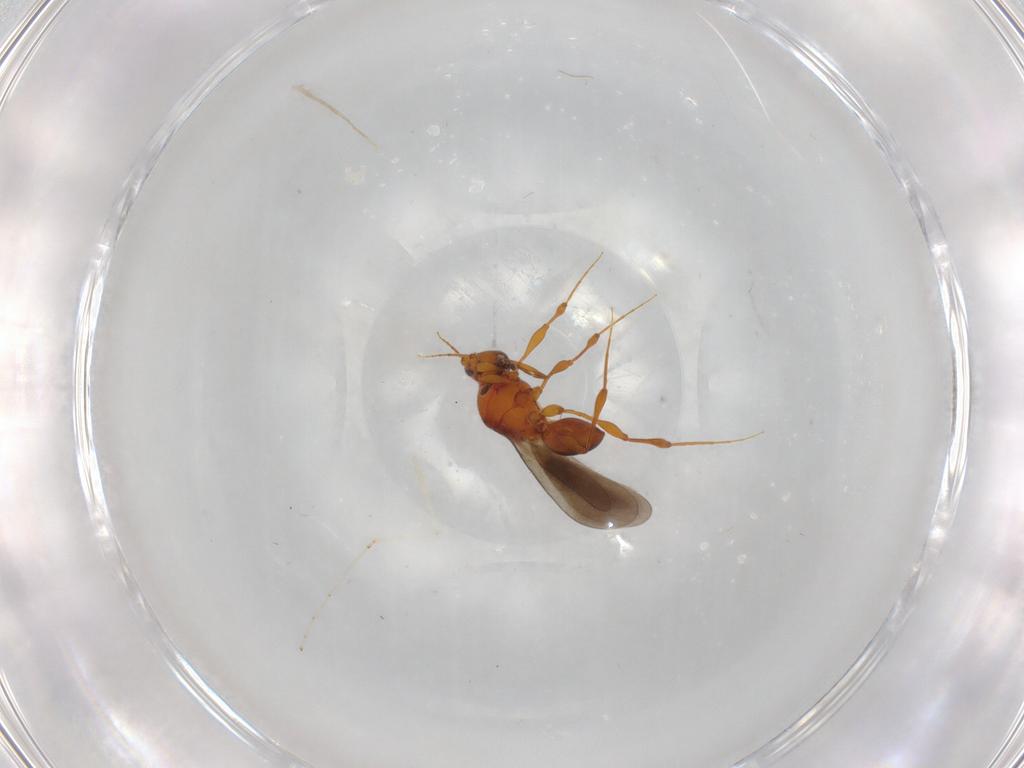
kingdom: Animalia
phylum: Arthropoda
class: Insecta
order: Hymenoptera
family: Platygastridae
